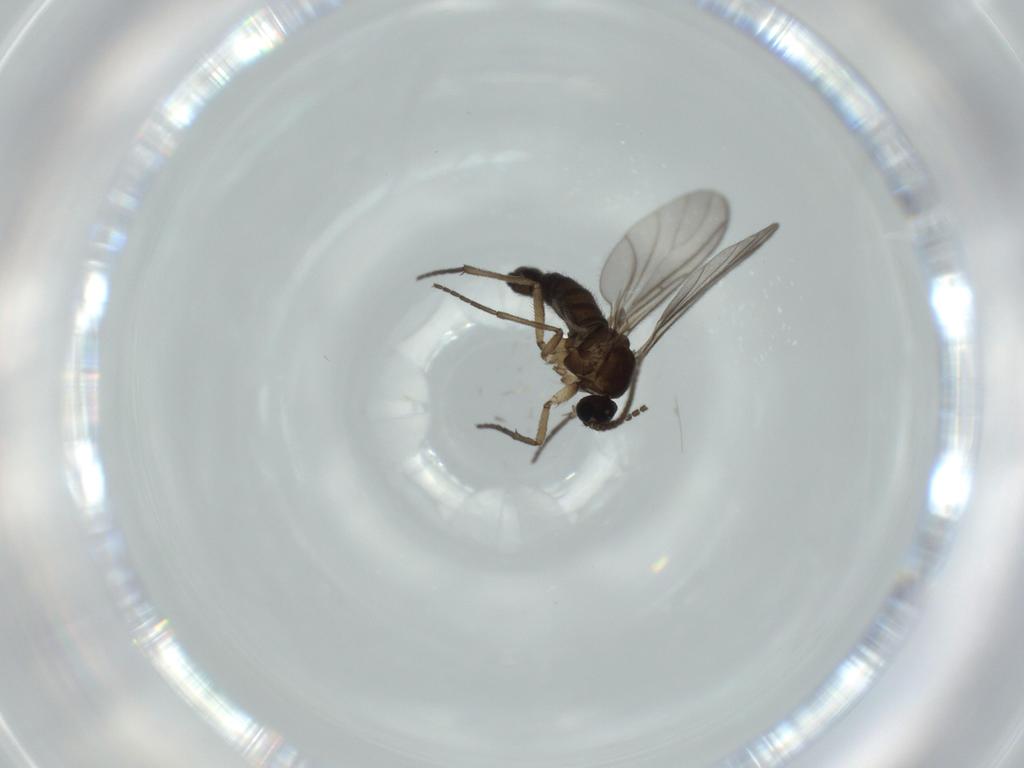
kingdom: Animalia
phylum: Arthropoda
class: Insecta
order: Diptera
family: Sciaridae
